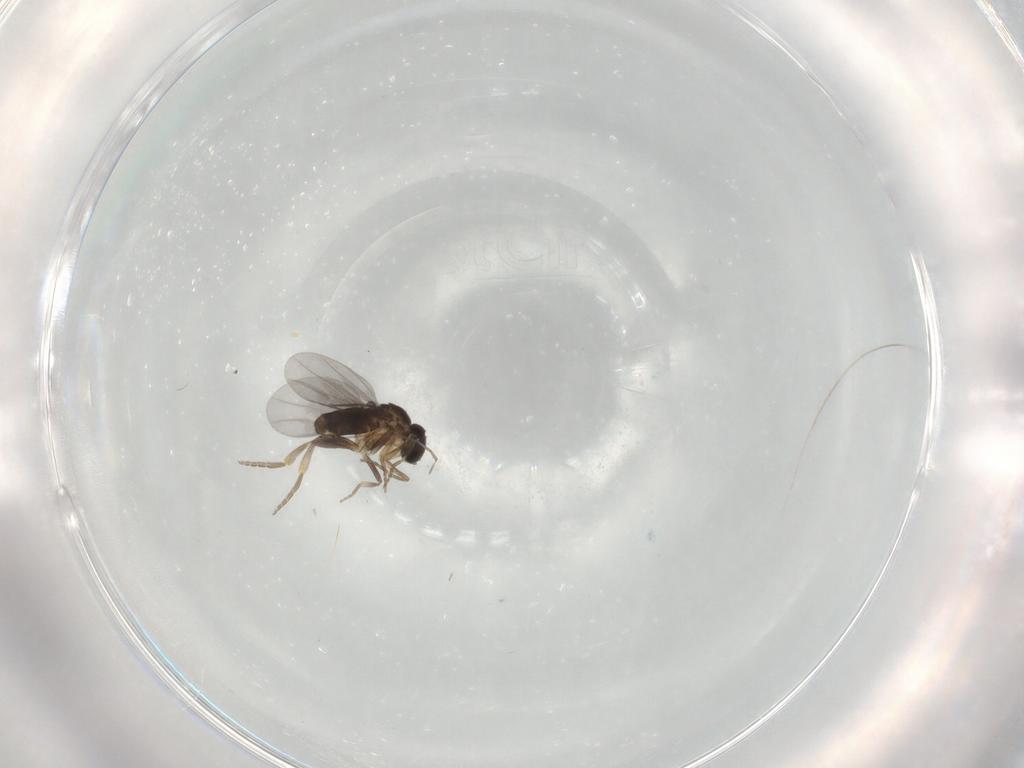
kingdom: Animalia
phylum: Arthropoda
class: Insecta
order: Diptera
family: Cecidomyiidae
